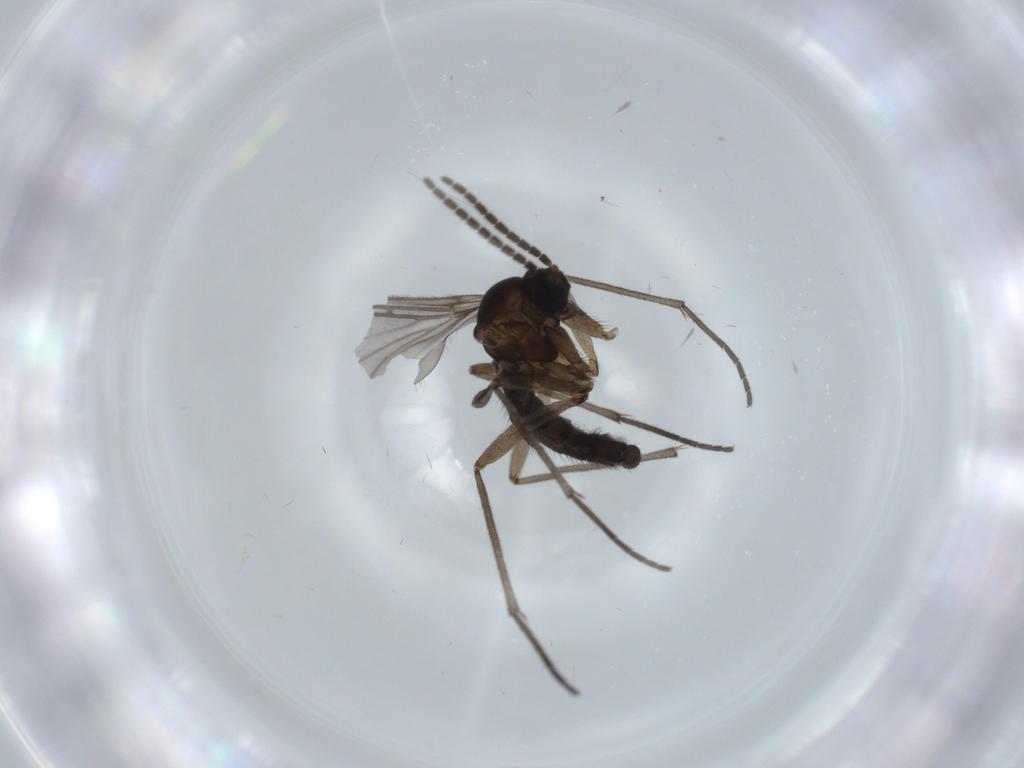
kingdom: Animalia
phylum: Arthropoda
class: Insecta
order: Diptera
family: Sciaridae
